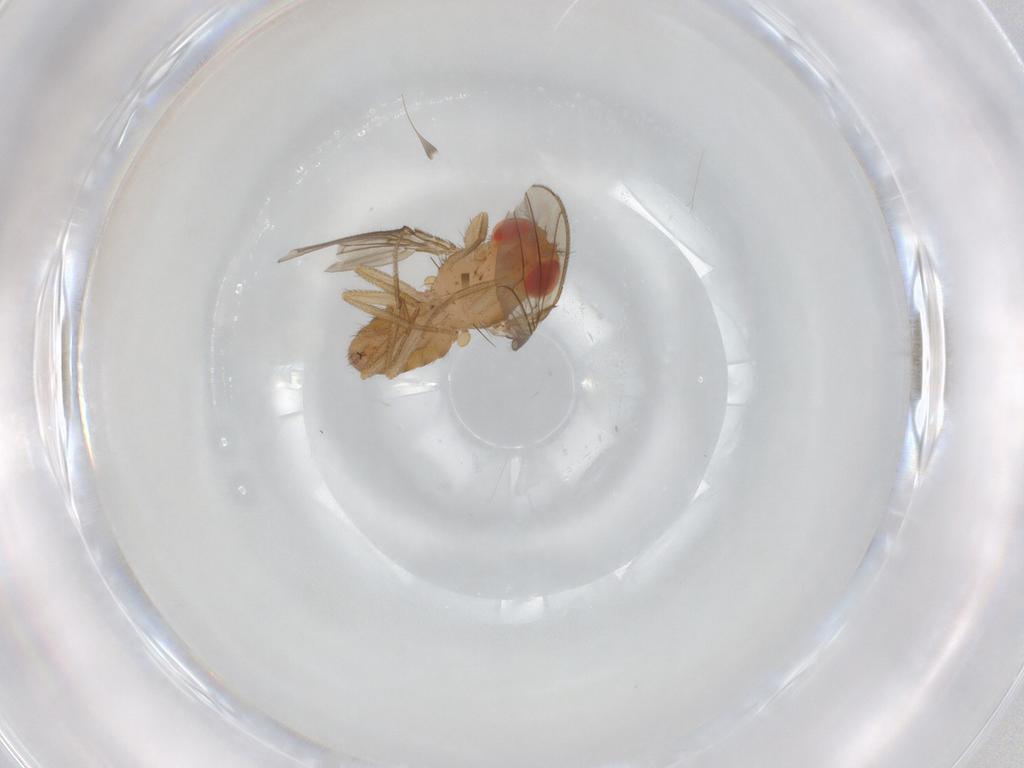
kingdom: Animalia
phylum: Arthropoda
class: Insecta
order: Diptera
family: Drosophilidae
